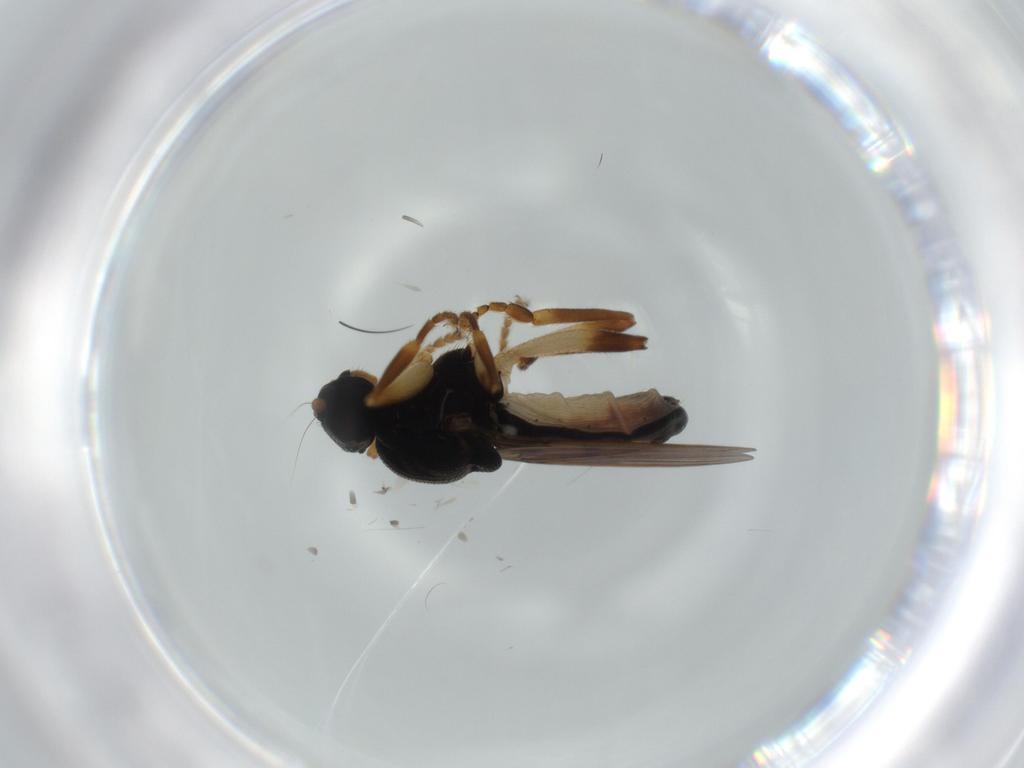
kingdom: Animalia
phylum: Arthropoda
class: Insecta
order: Diptera
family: Sphaeroceridae
